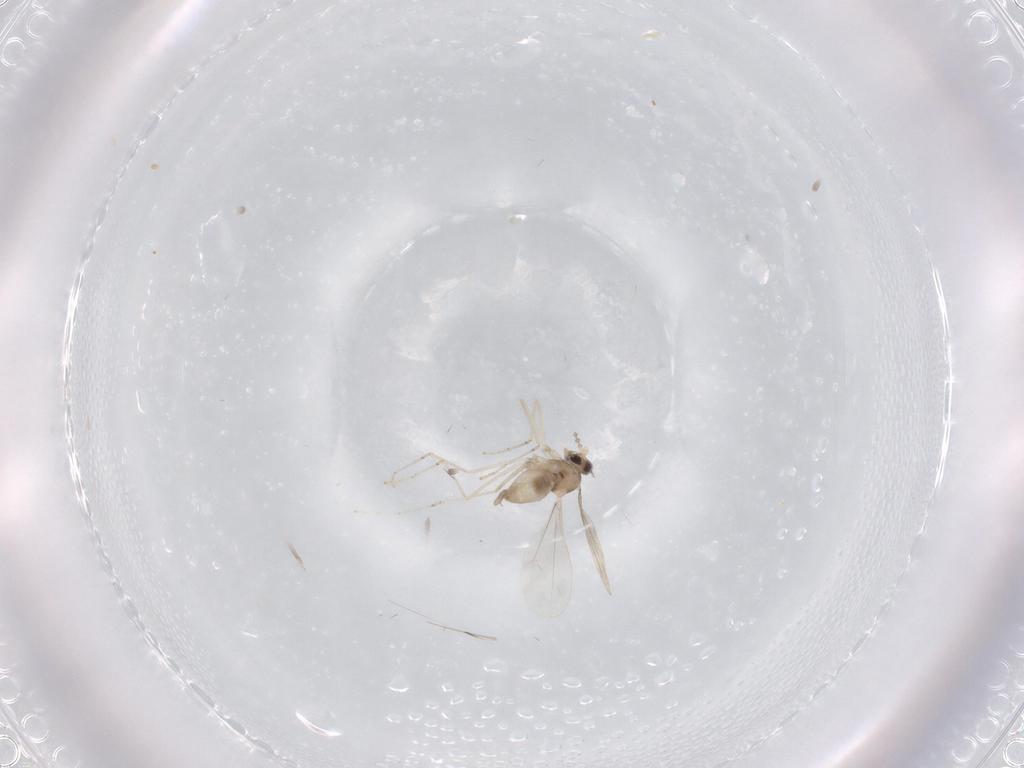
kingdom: Animalia
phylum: Arthropoda
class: Insecta
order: Diptera
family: Cecidomyiidae
